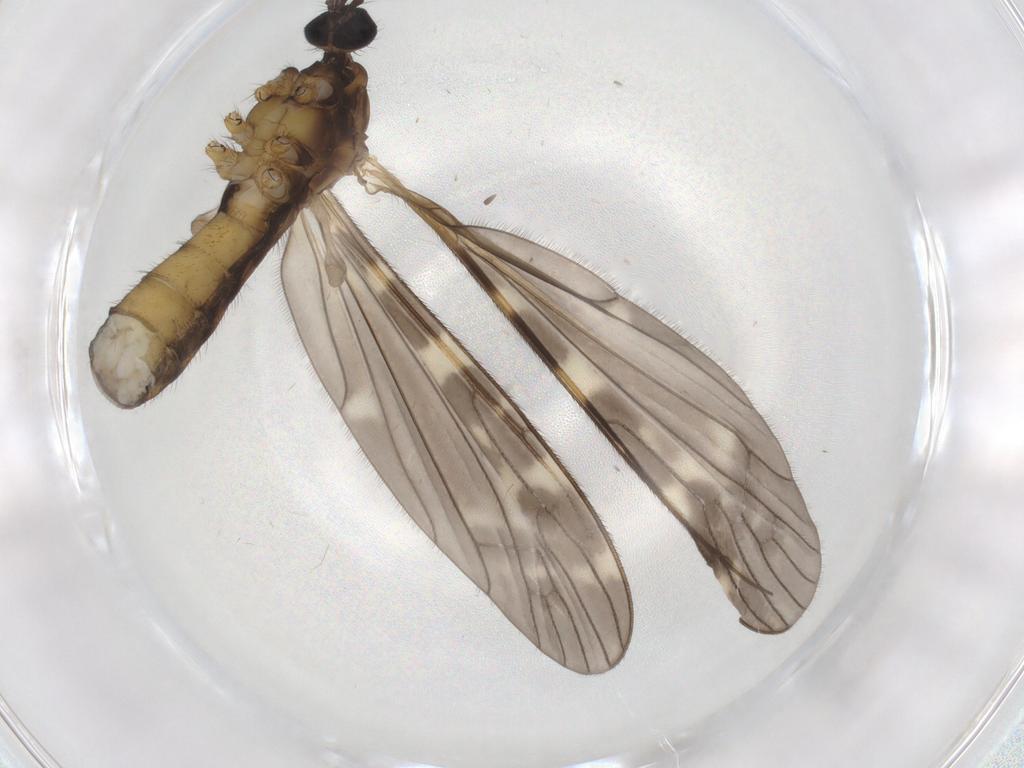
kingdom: Animalia
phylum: Arthropoda
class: Insecta
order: Diptera
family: Limoniidae
